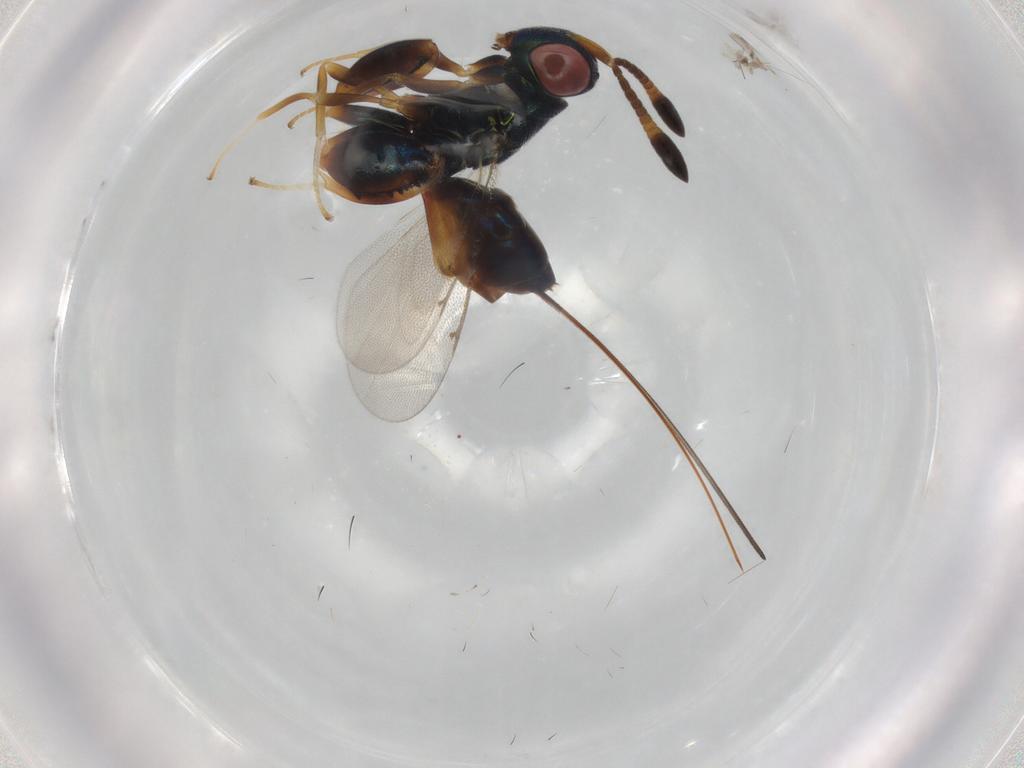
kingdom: Animalia
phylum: Arthropoda
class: Insecta
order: Hymenoptera
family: Torymidae
